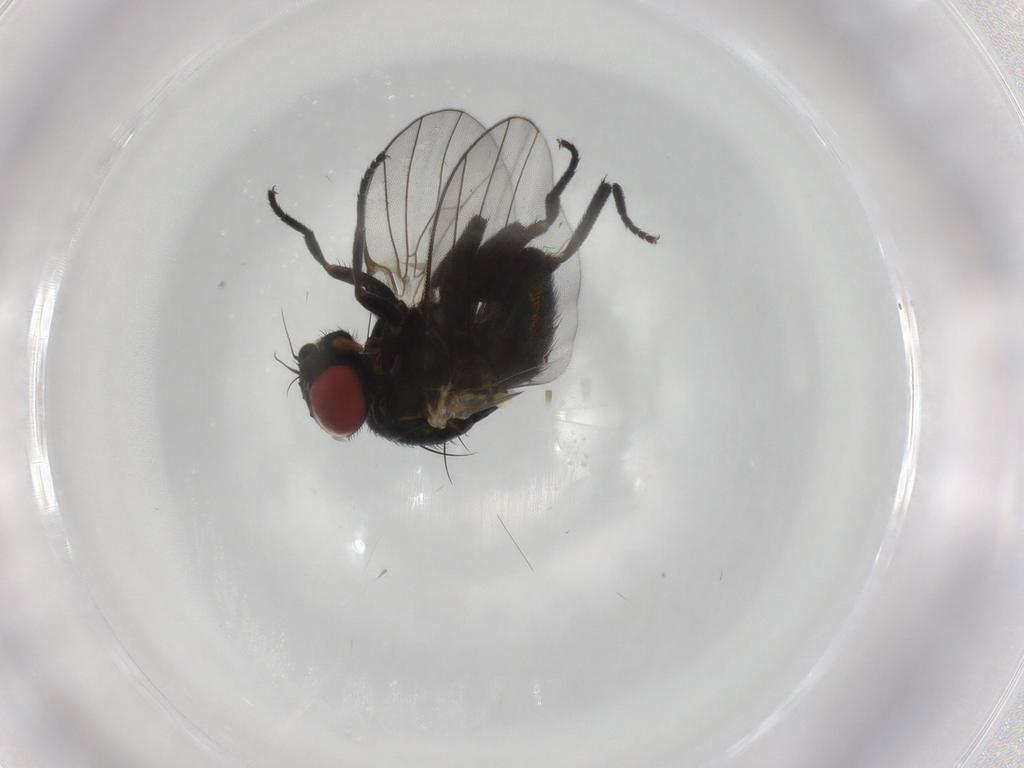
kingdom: Animalia
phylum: Arthropoda
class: Insecta
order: Diptera
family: Agromyzidae
